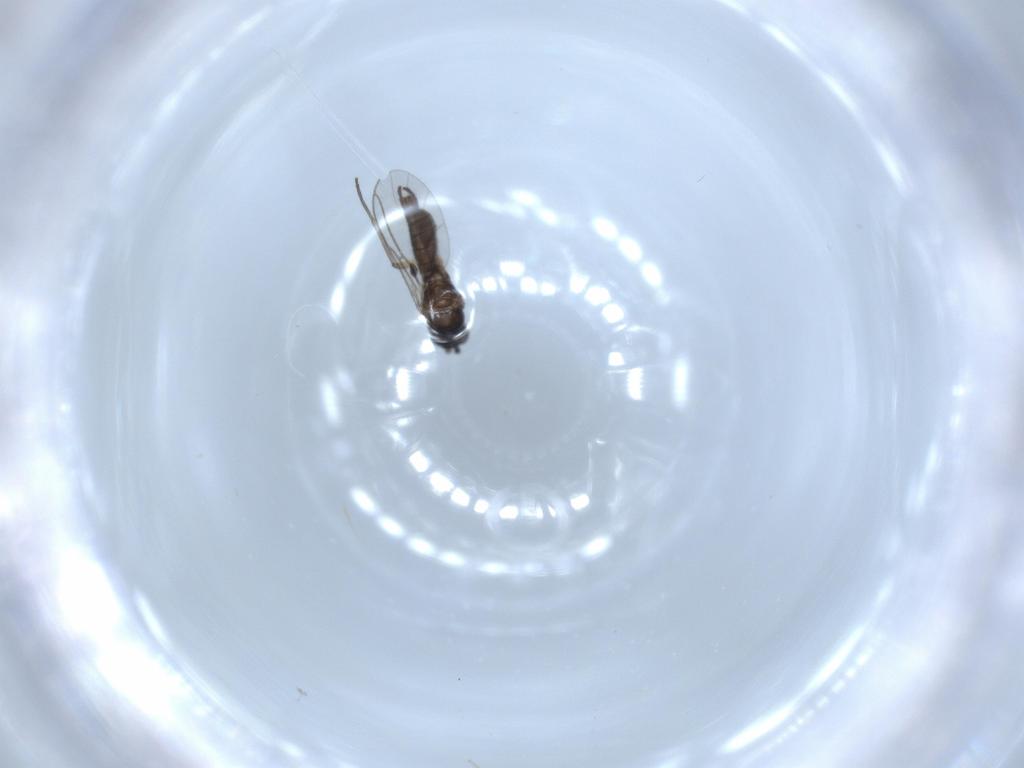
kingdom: Animalia
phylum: Arthropoda
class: Insecta
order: Diptera
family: Sciaridae
